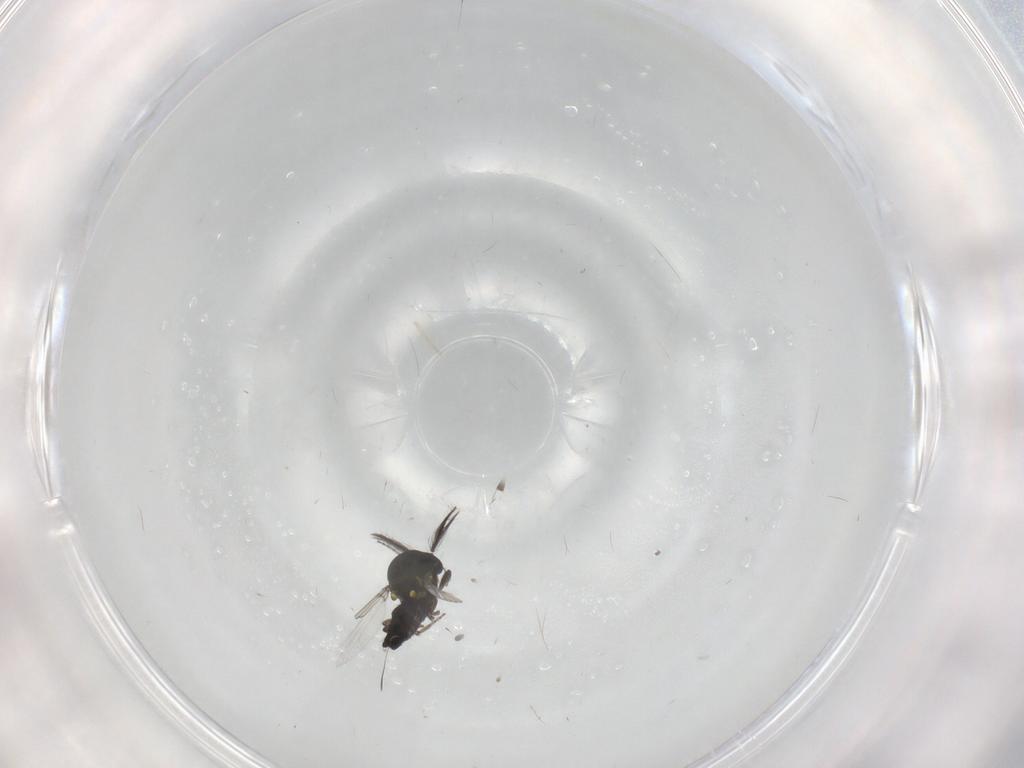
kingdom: Animalia
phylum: Arthropoda
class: Insecta
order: Diptera
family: Ceratopogonidae
